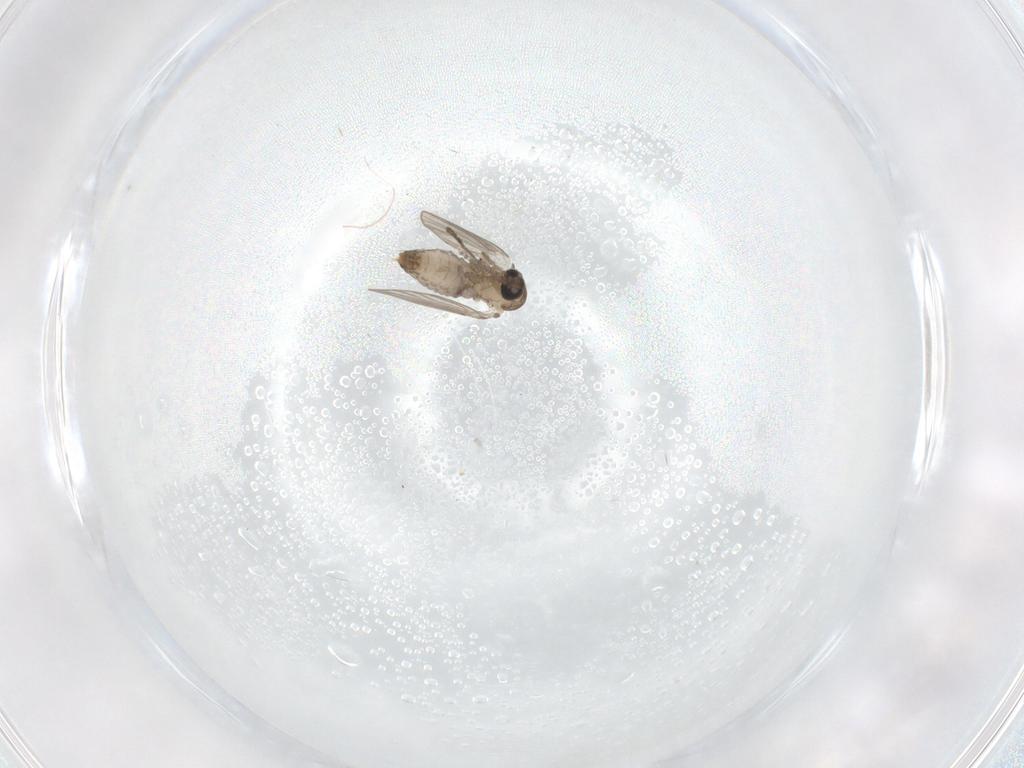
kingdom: Animalia
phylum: Arthropoda
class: Insecta
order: Diptera
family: Psychodidae
